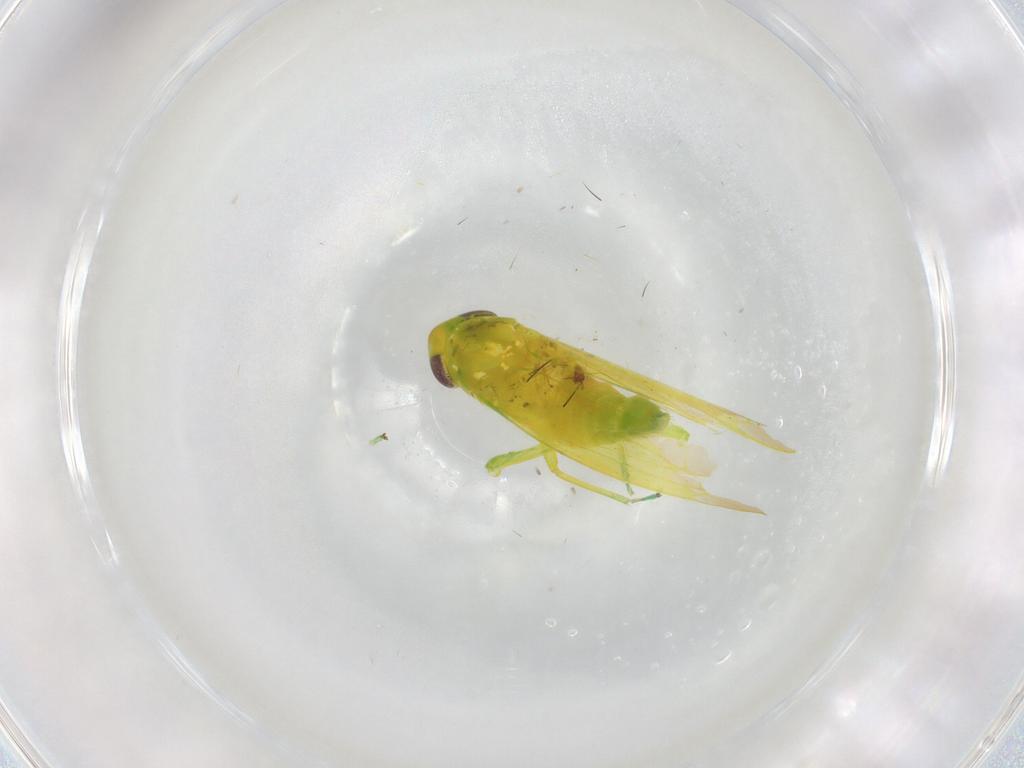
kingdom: Animalia
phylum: Arthropoda
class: Insecta
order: Hemiptera
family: Cicadellidae
